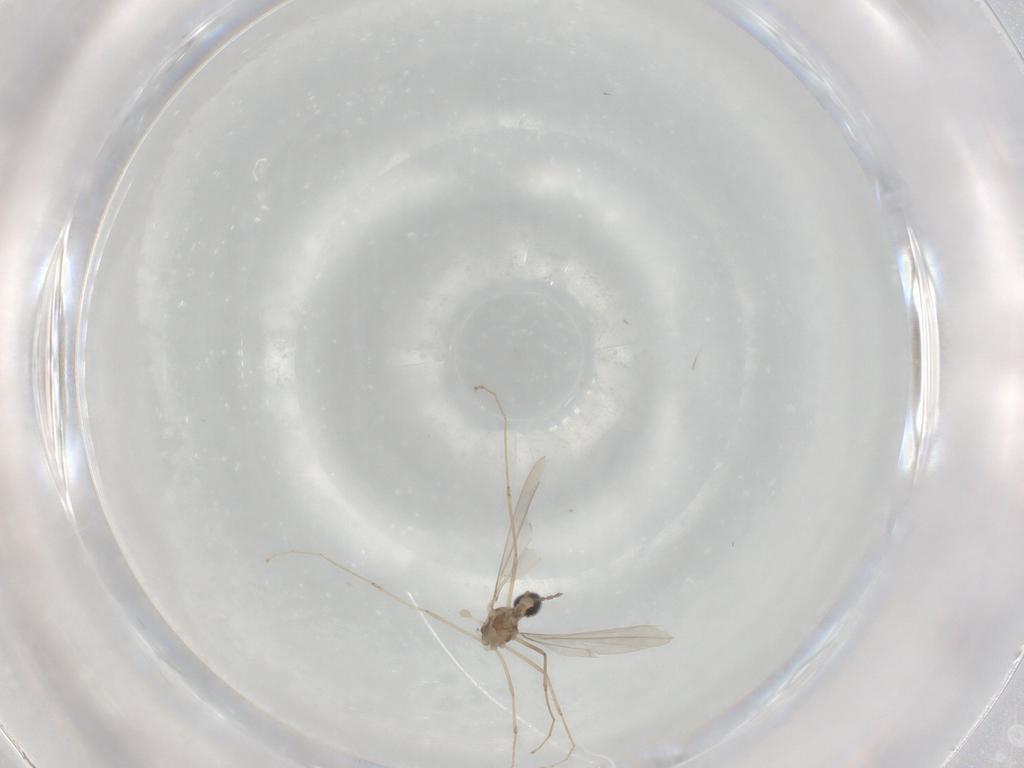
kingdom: Animalia
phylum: Arthropoda
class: Insecta
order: Diptera
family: Cecidomyiidae
